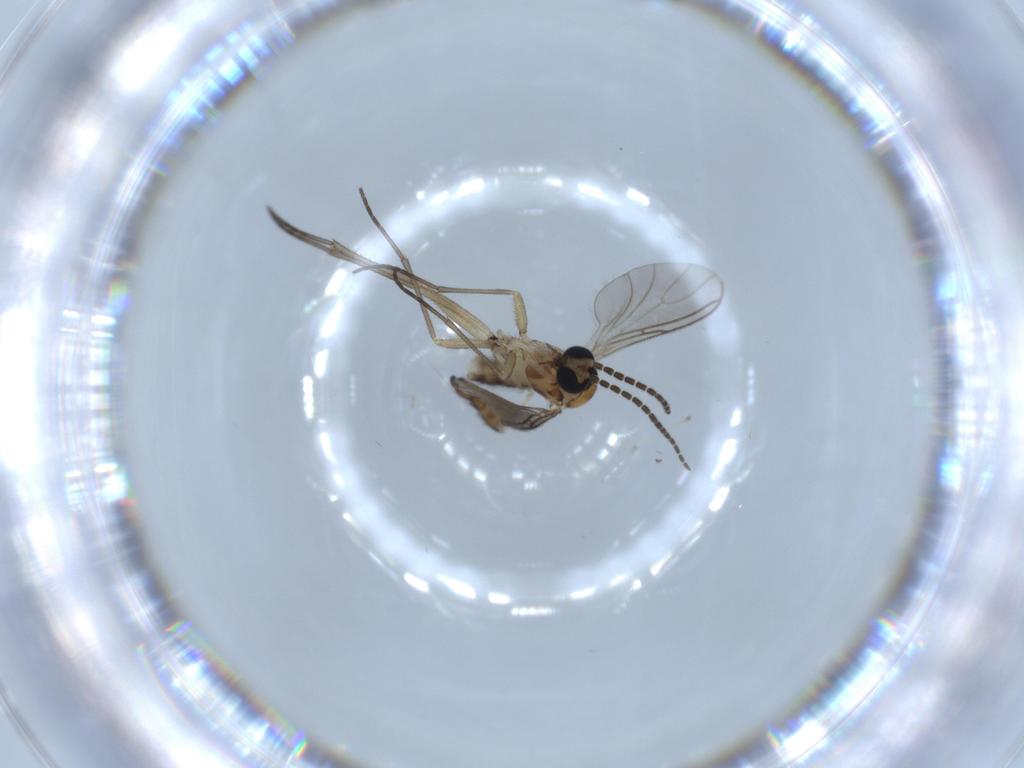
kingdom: Animalia
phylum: Arthropoda
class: Insecta
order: Diptera
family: Sciaridae
